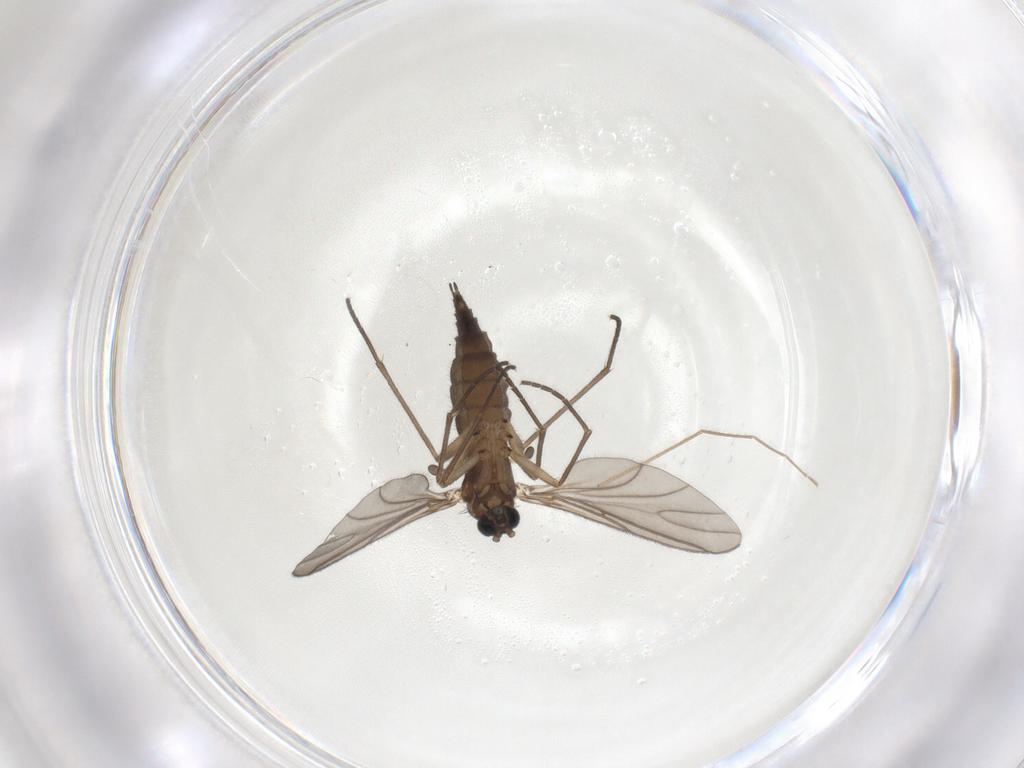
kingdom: Animalia
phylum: Arthropoda
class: Insecta
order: Diptera
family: Sciaridae
